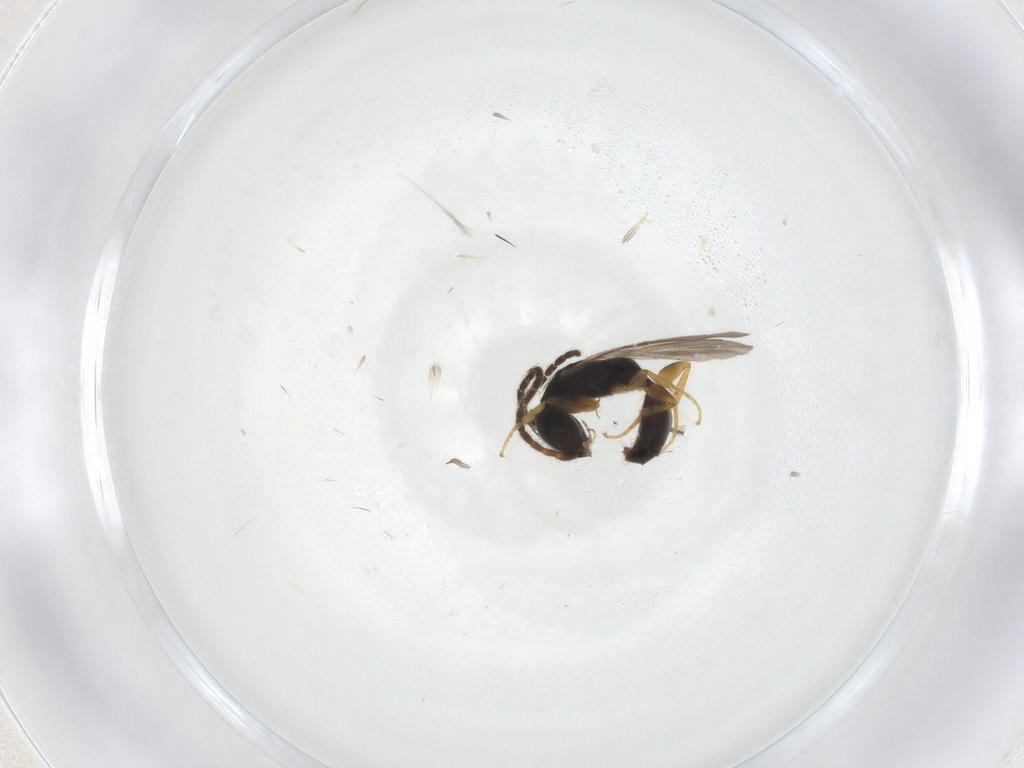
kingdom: Animalia
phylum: Arthropoda
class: Insecta
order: Hymenoptera
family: Bethylidae
